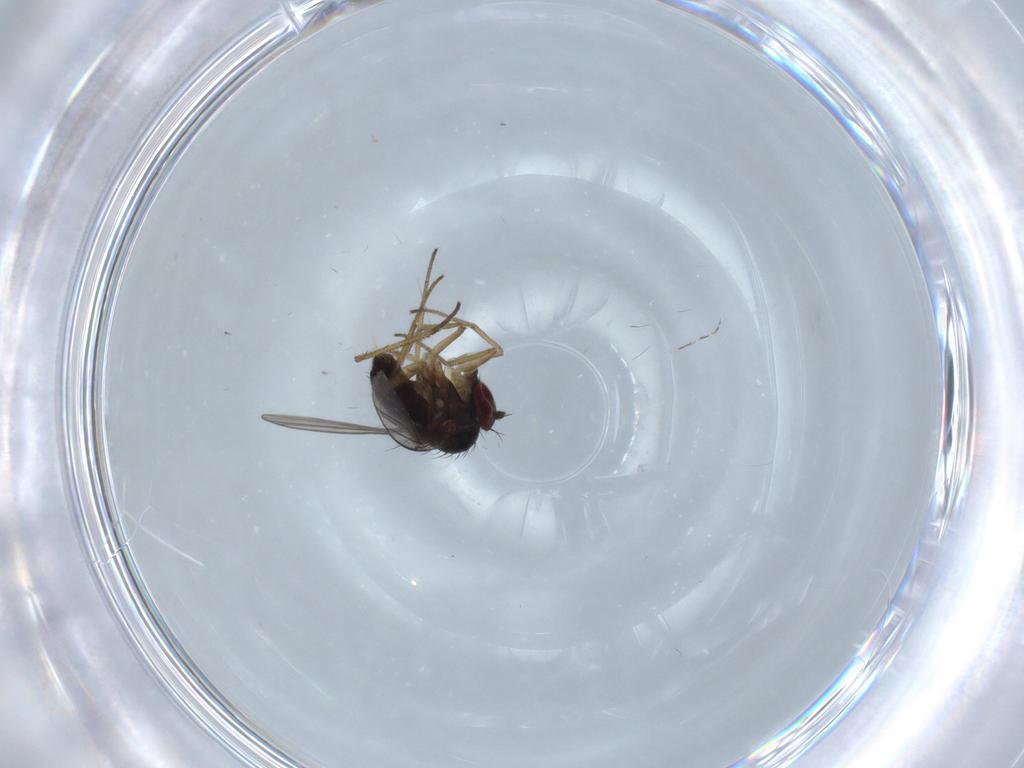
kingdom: Animalia
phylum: Arthropoda
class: Insecta
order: Diptera
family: Dolichopodidae
